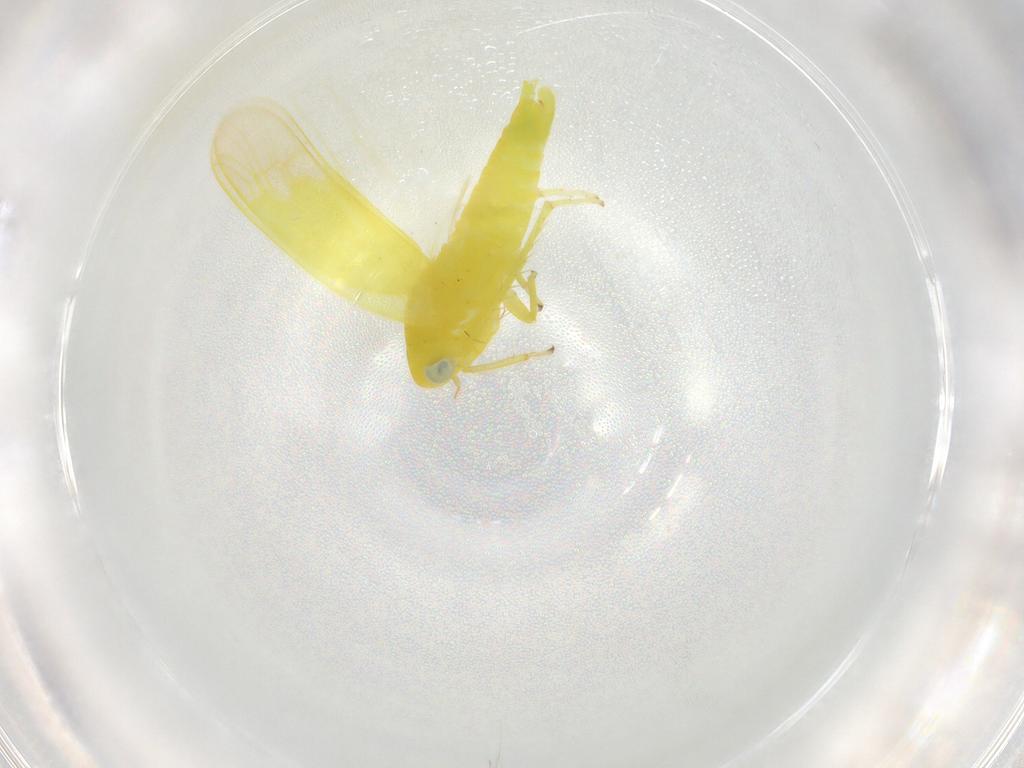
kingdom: Animalia
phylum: Arthropoda
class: Insecta
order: Hemiptera
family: Cicadellidae
